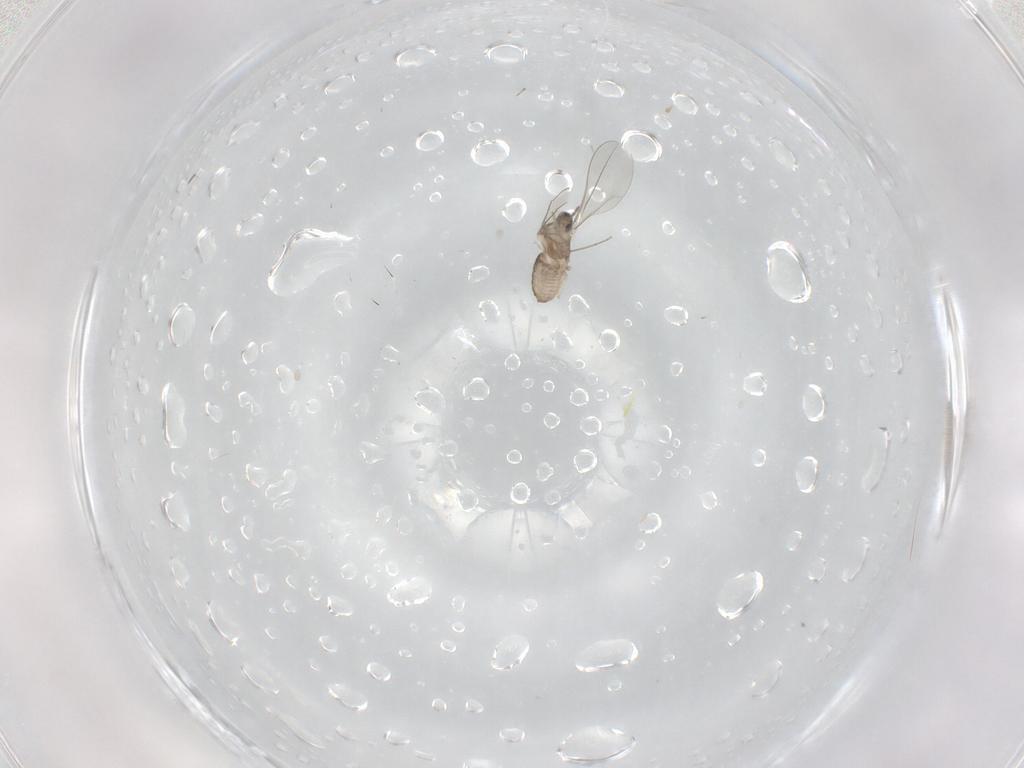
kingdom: Animalia
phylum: Arthropoda
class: Insecta
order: Diptera
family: Cecidomyiidae
